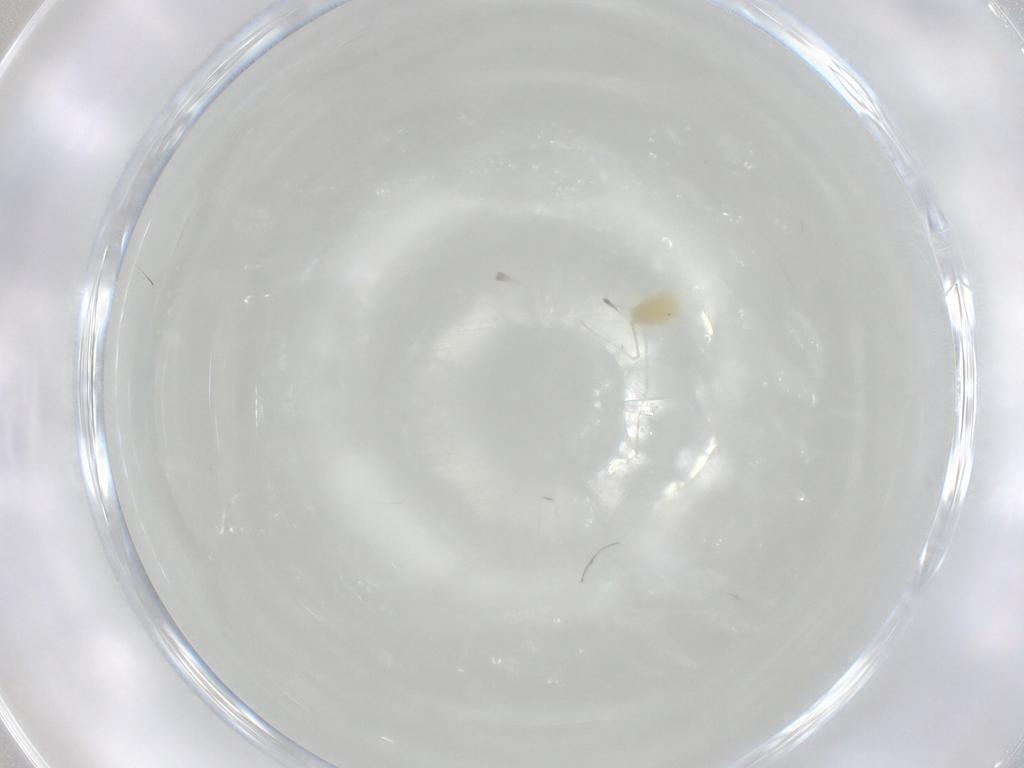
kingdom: Animalia
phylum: Arthropoda
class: Arachnida
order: Trombidiformes
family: Tetranychidae
